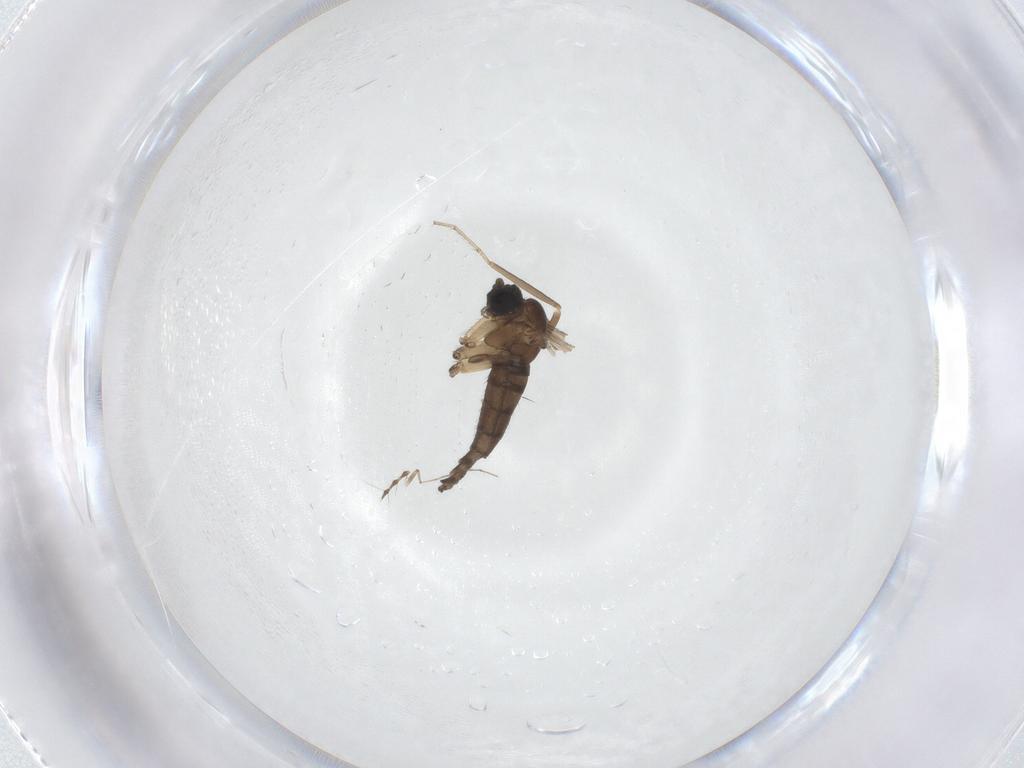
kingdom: Animalia
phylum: Arthropoda
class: Insecta
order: Diptera
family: Sciaridae
